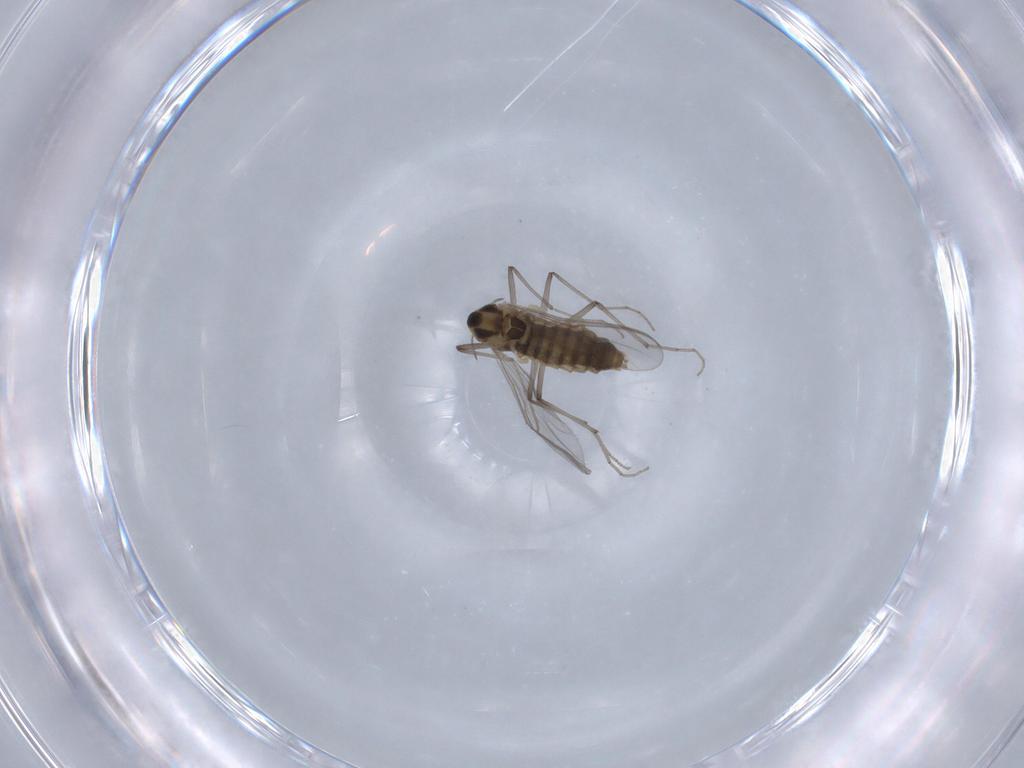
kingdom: Animalia
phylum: Arthropoda
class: Insecta
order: Diptera
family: Chironomidae
